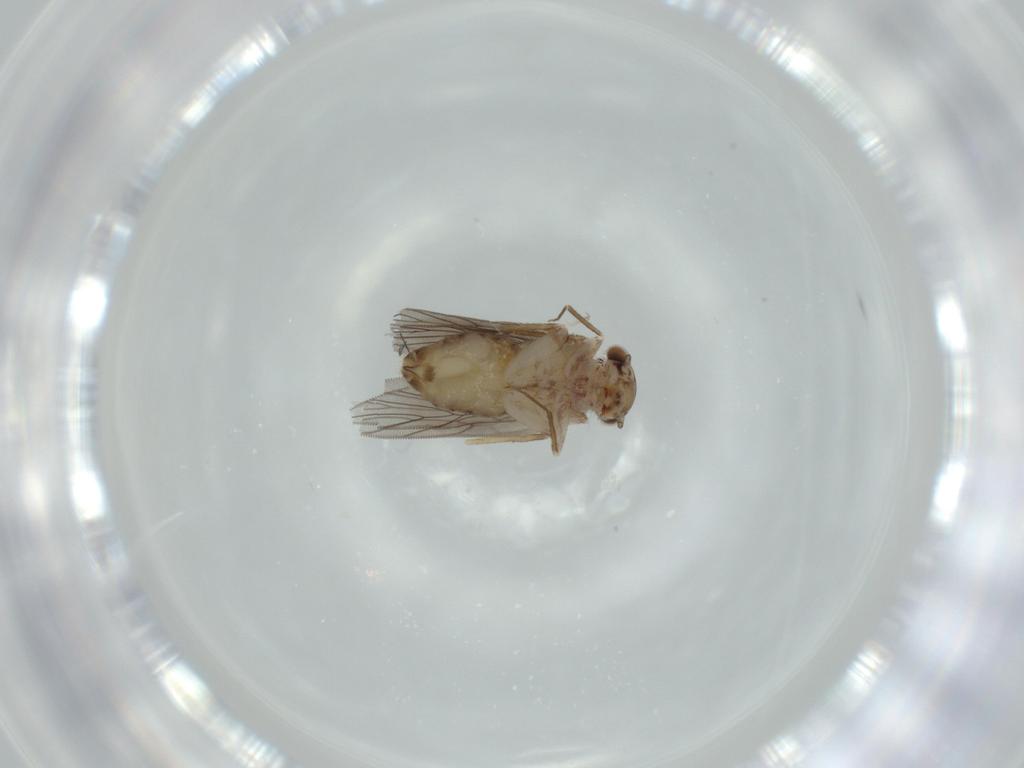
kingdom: Animalia
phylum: Arthropoda
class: Insecta
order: Psocodea
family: Lepidopsocidae
